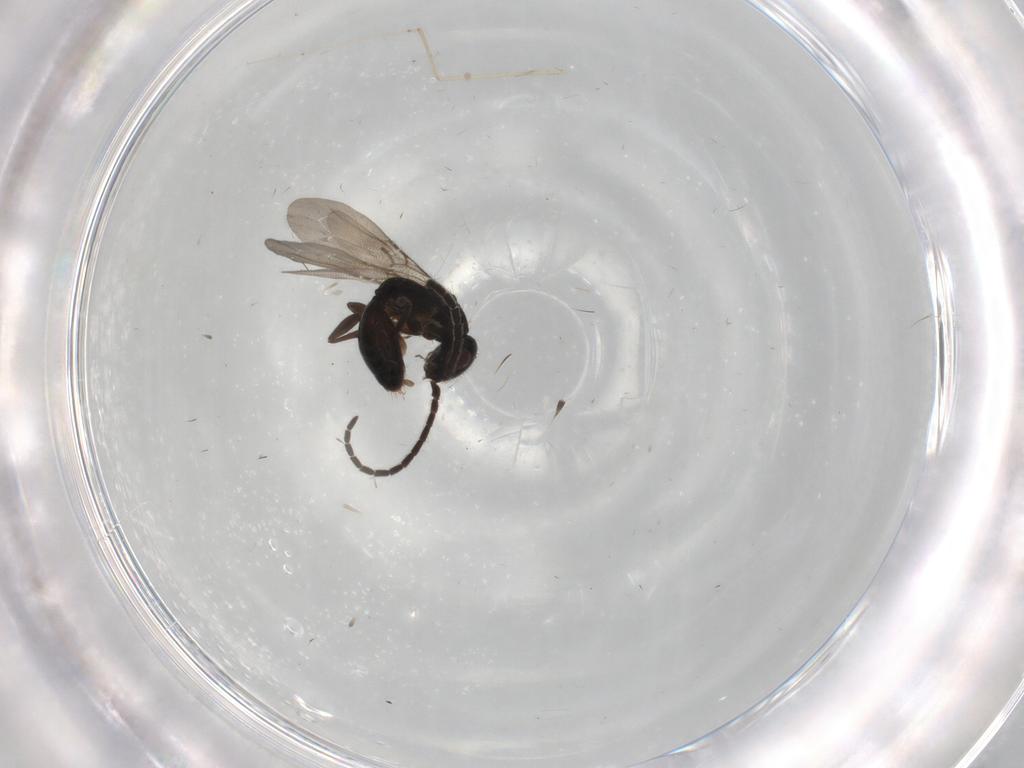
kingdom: Animalia
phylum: Arthropoda
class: Insecta
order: Hymenoptera
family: Bethylidae
